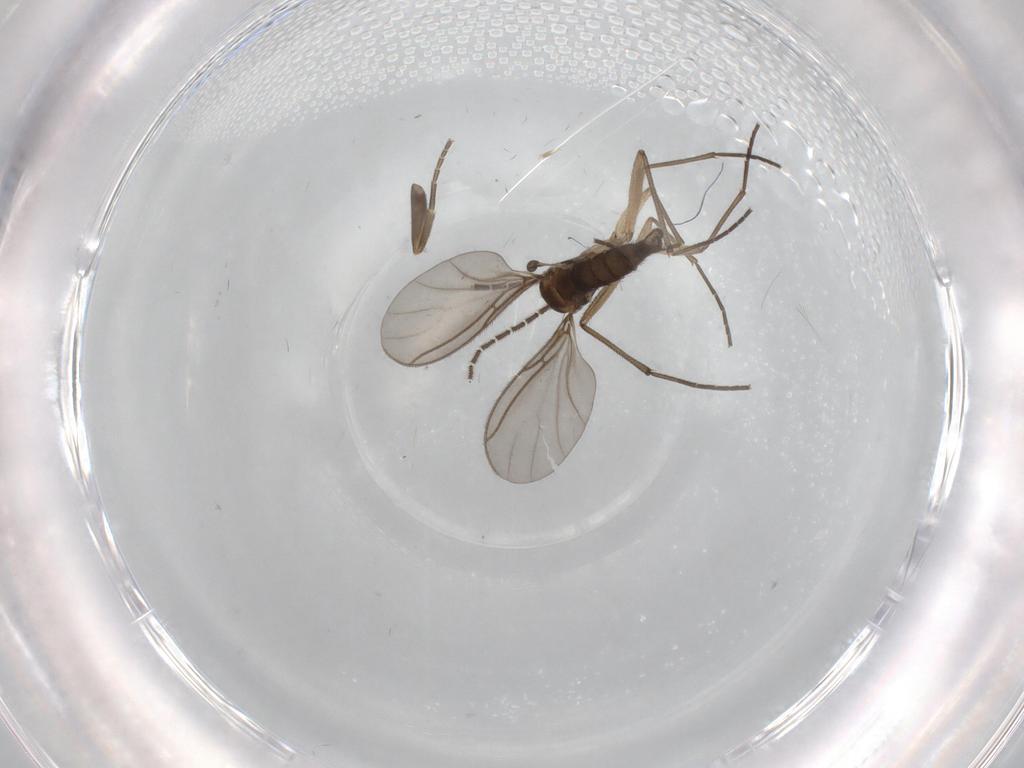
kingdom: Animalia
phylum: Arthropoda
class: Insecta
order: Diptera
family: Sciaridae
